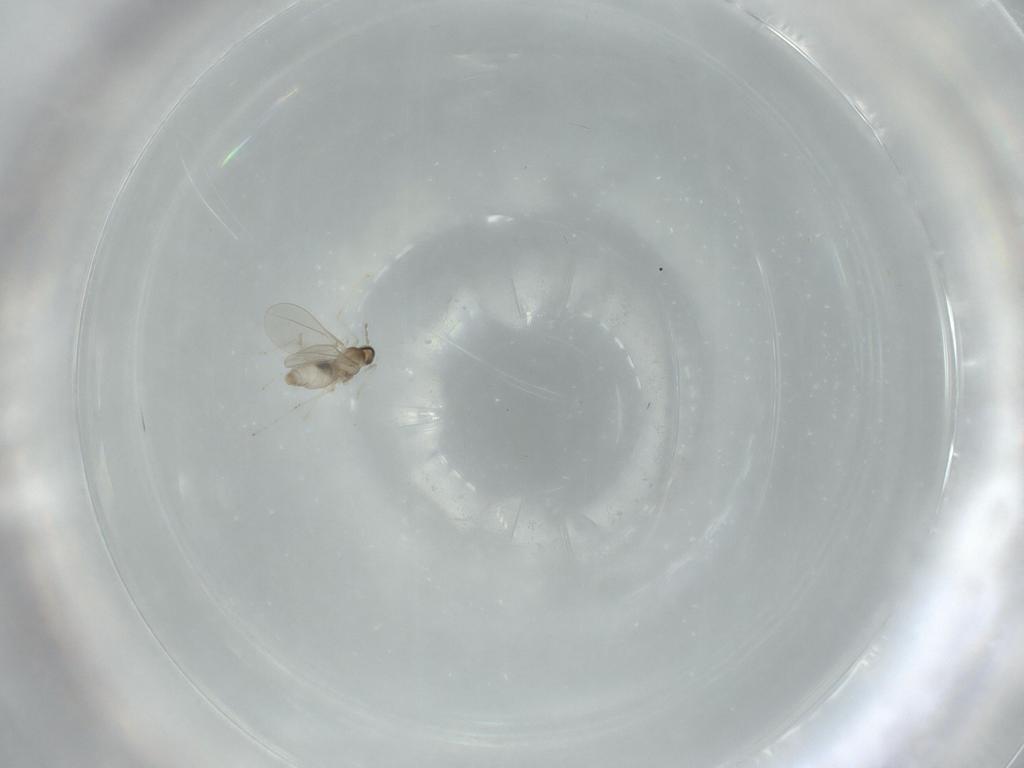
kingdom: Animalia
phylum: Arthropoda
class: Insecta
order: Diptera
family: Cecidomyiidae
